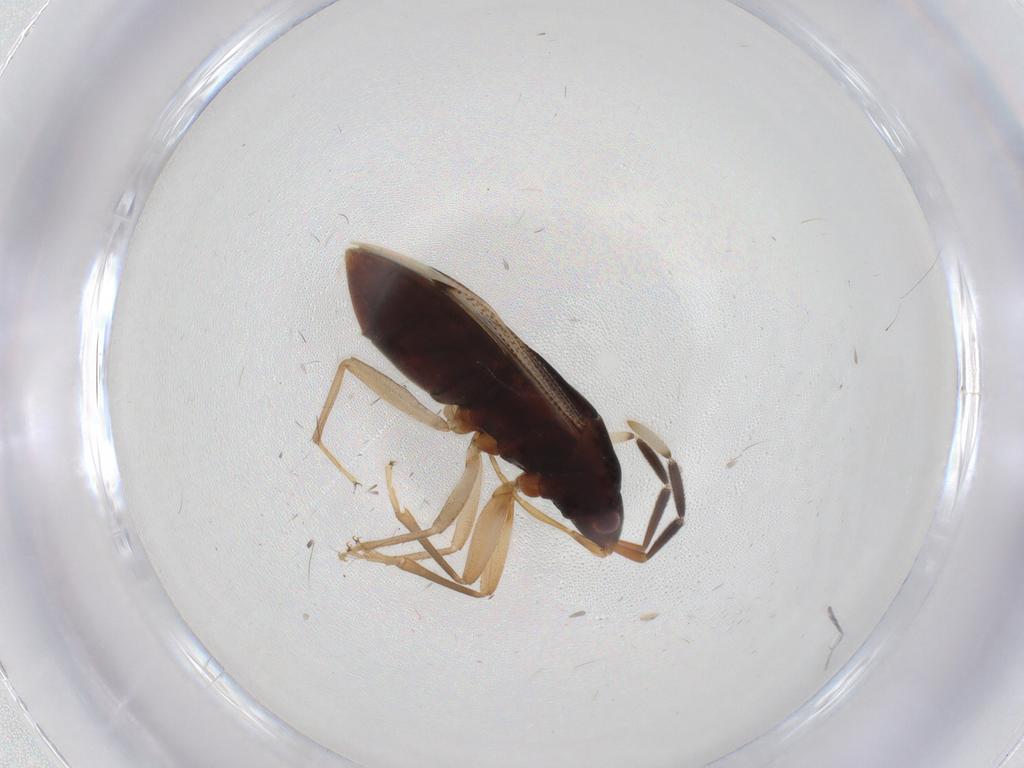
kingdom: Animalia
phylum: Arthropoda
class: Insecta
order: Hemiptera
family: Rhyparochromidae
